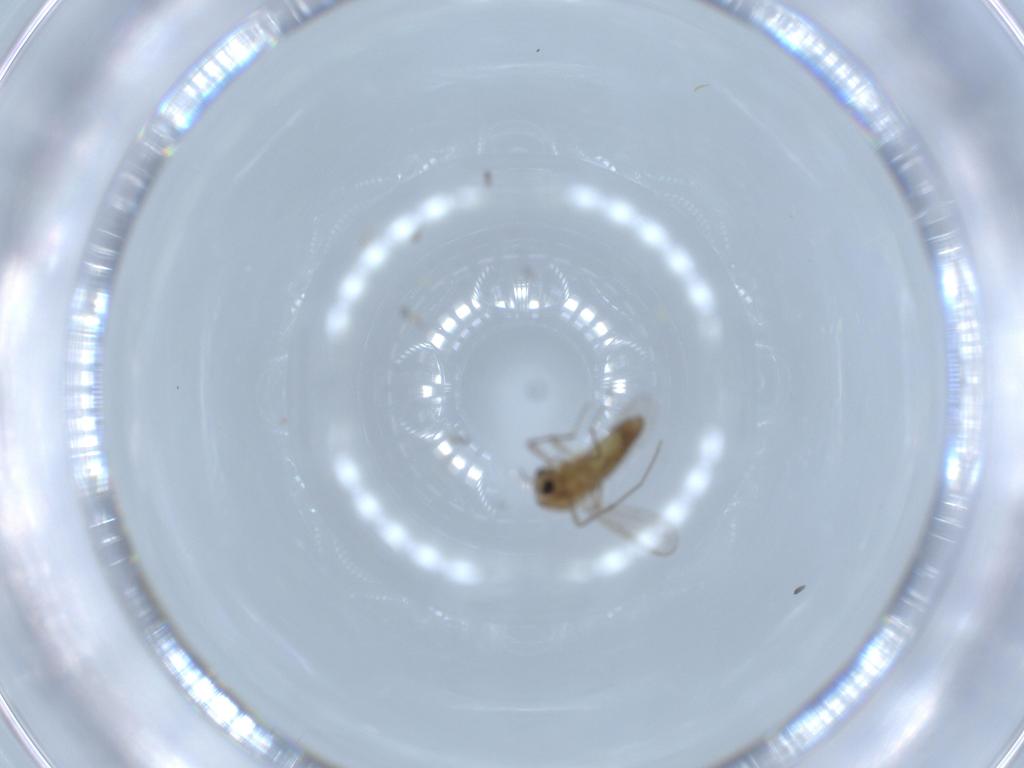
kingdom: Animalia
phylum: Arthropoda
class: Insecta
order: Diptera
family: Chironomidae
